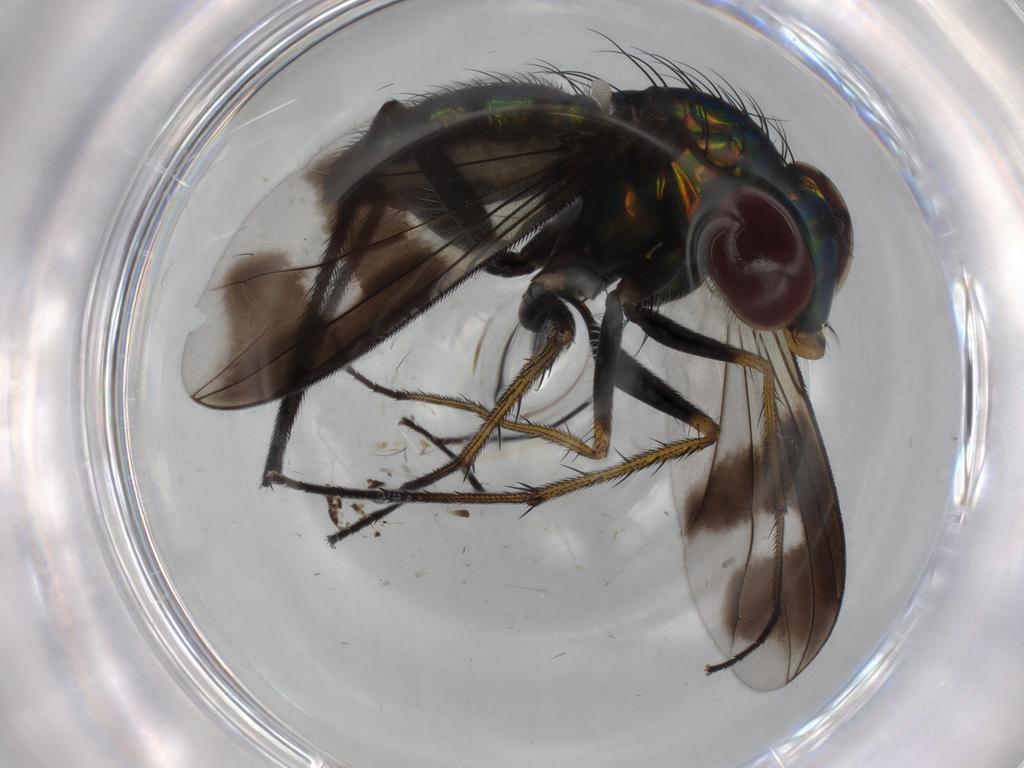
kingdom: Animalia
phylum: Arthropoda
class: Insecta
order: Diptera
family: Dolichopodidae
